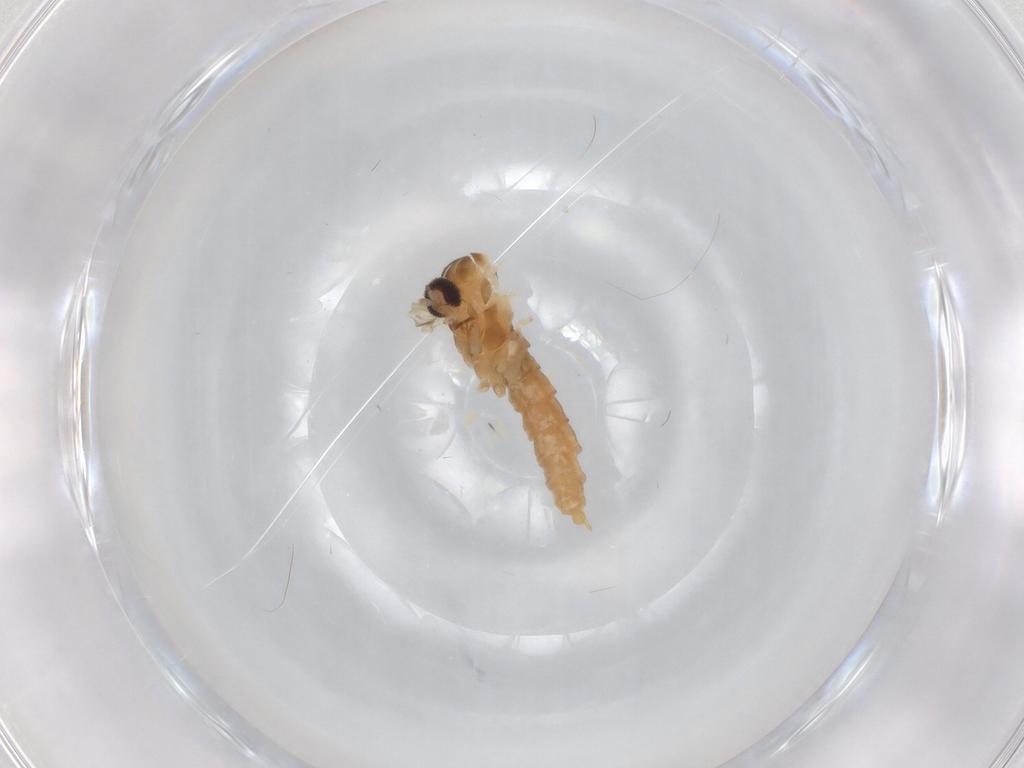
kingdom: Animalia
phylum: Arthropoda
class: Insecta
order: Diptera
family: Cecidomyiidae
